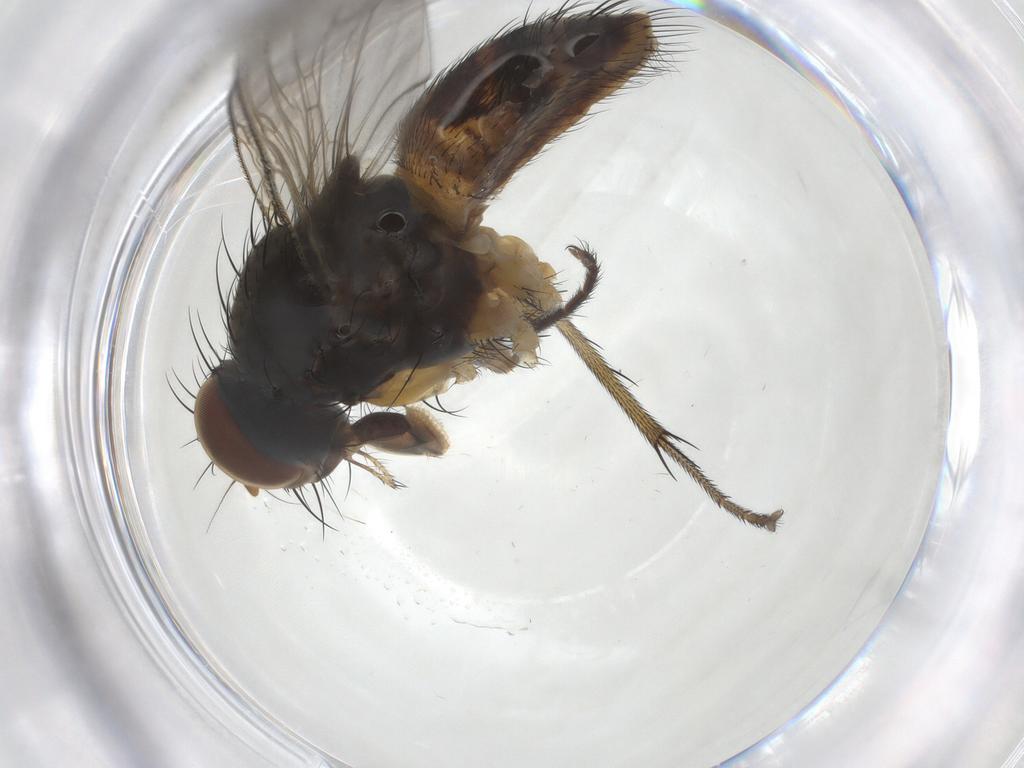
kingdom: Animalia
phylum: Arthropoda
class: Insecta
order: Diptera
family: Muscidae
